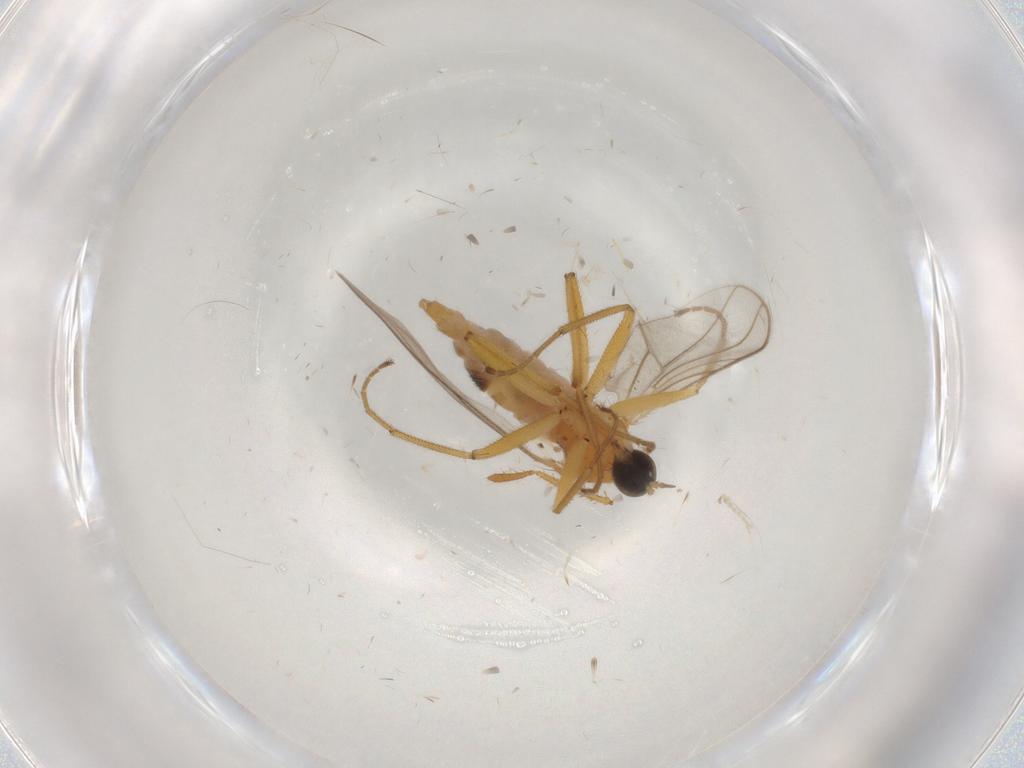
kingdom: Animalia
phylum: Arthropoda
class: Insecta
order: Diptera
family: Hybotidae
